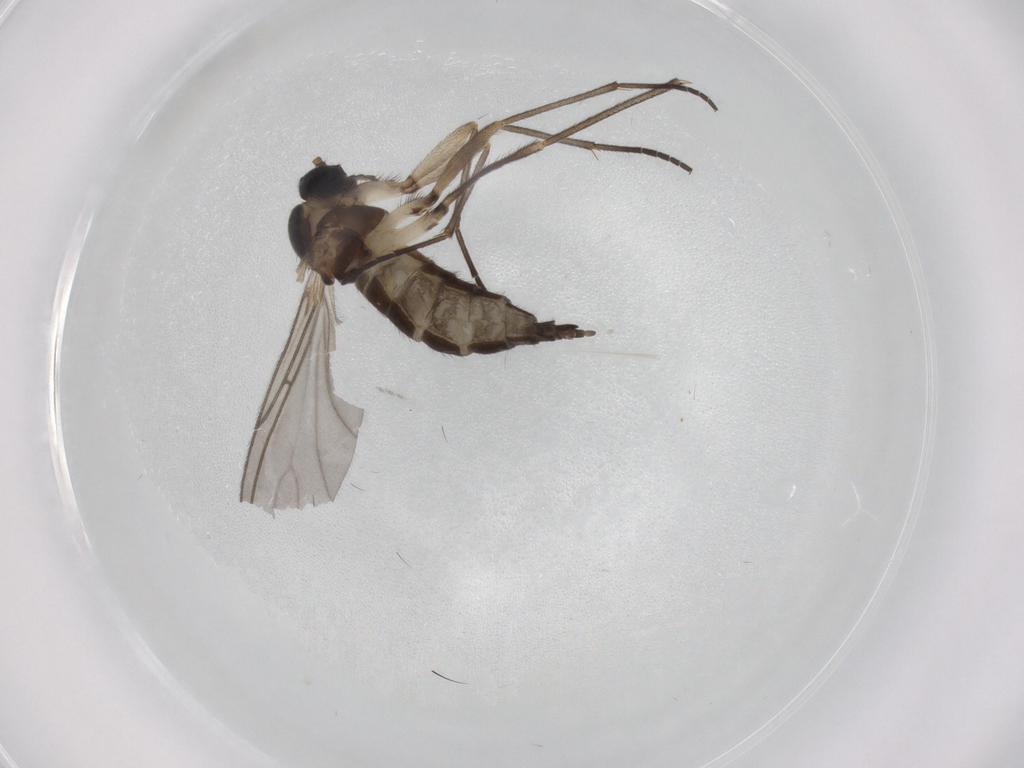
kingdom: Animalia
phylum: Arthropoda
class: Insecta
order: Diptera
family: Sciaridae
